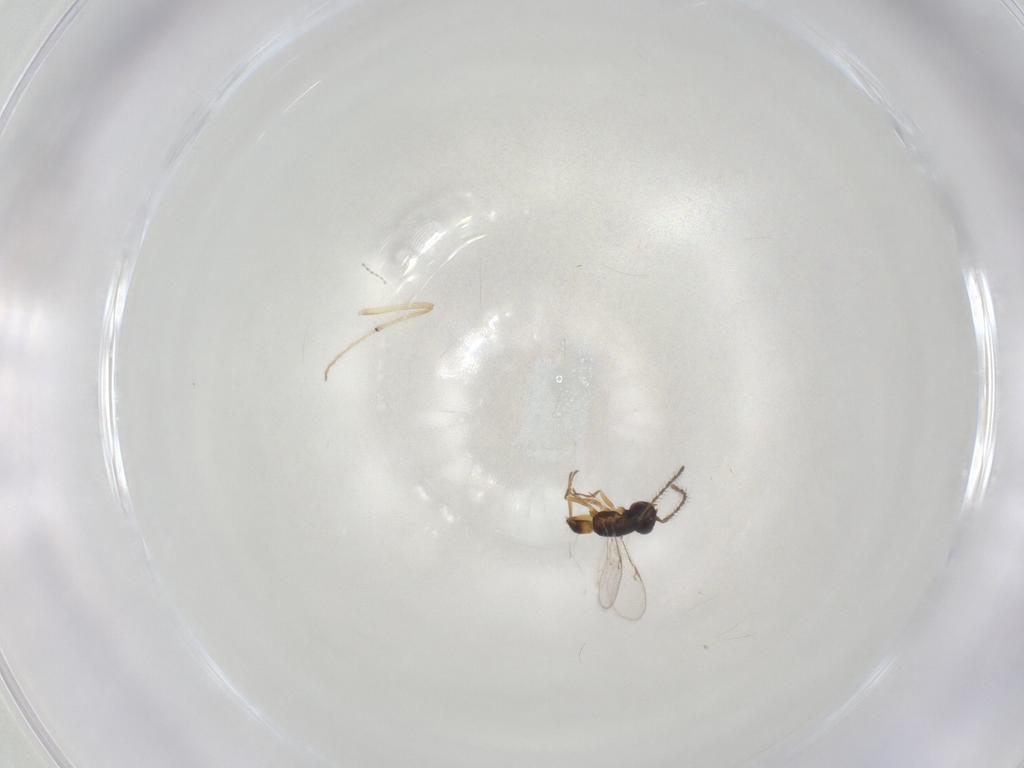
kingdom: Animalia
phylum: Arthropoda
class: Insecta
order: Hymenoptera
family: Encyrtidae
